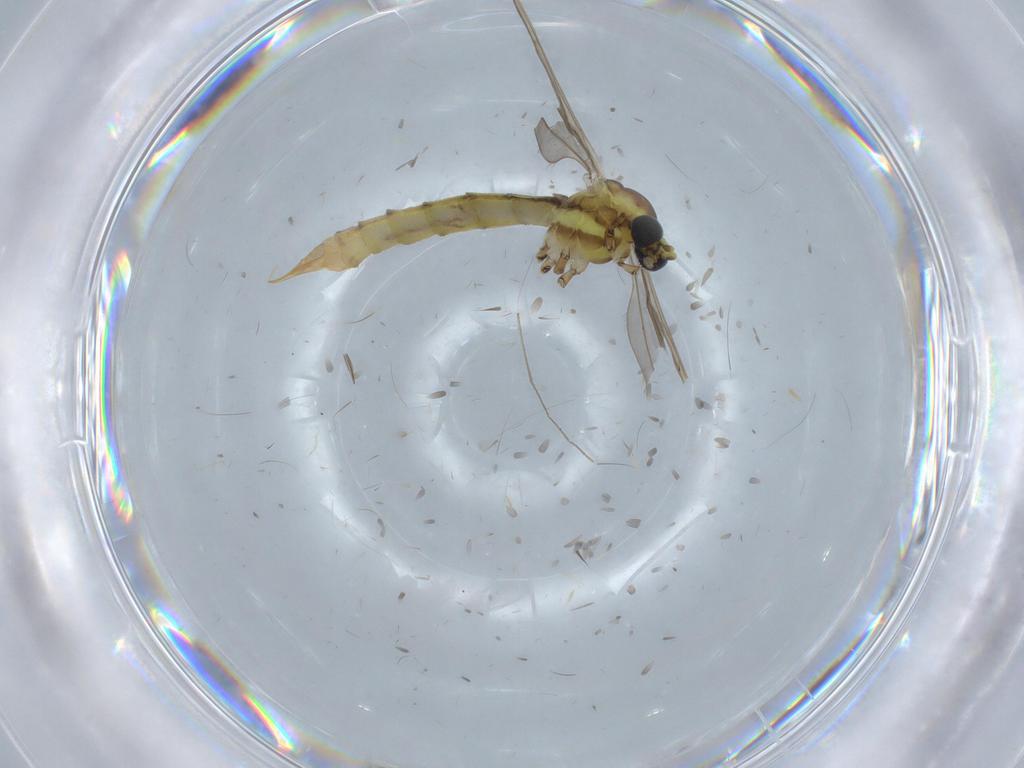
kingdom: Animalia
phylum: Arthropoda
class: Insecta
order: Diptera
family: Limoniidae
